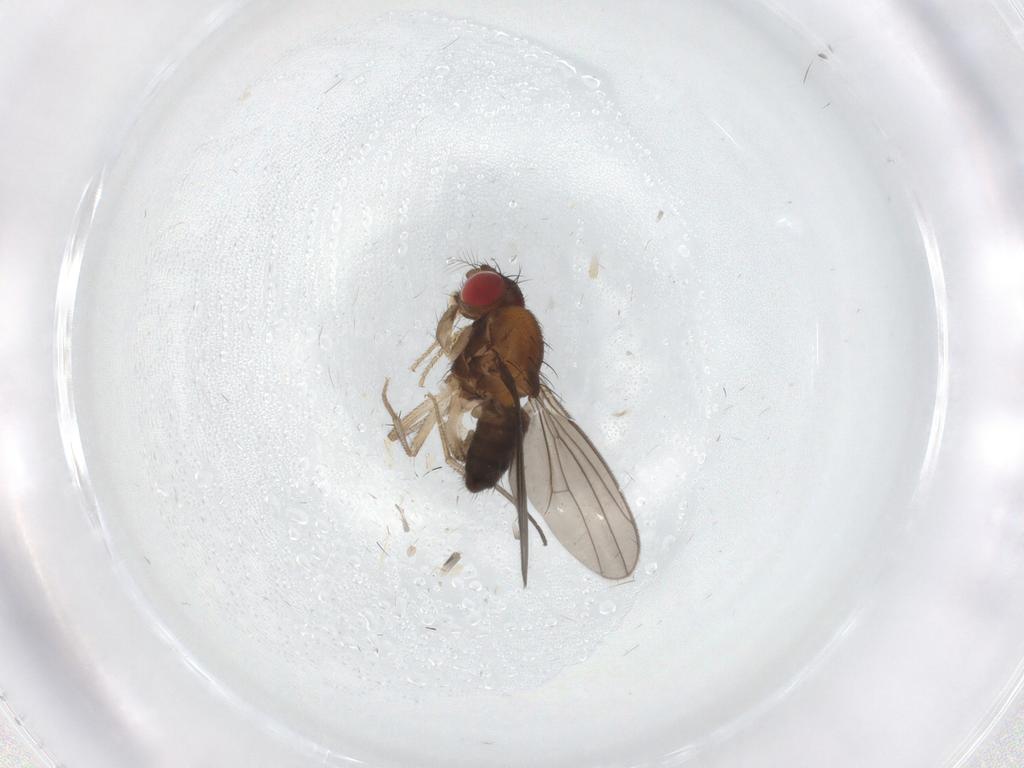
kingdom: Animalia
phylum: Arthropoda
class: Insecta
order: Diptera
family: Drosophilidae
